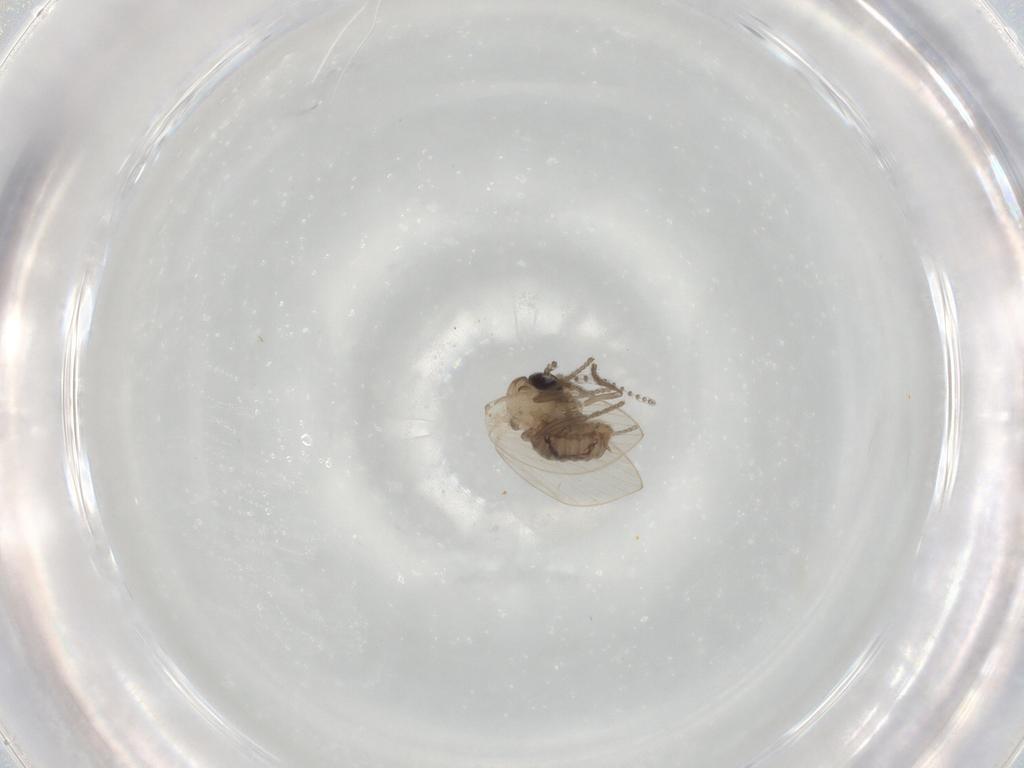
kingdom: Animalia
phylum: Arthropoda
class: Insecta
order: Diptera
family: Psychodidae
